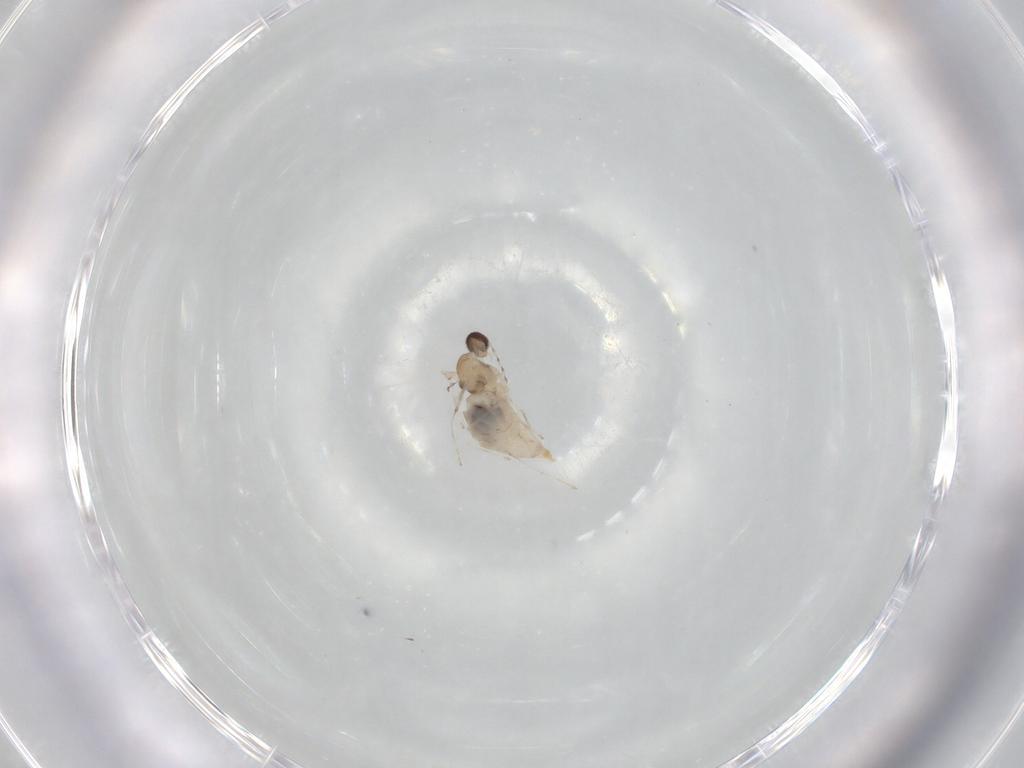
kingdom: Animalia
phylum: Arthropoda
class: Insecta
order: Diptera
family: Cecidomyiidae
